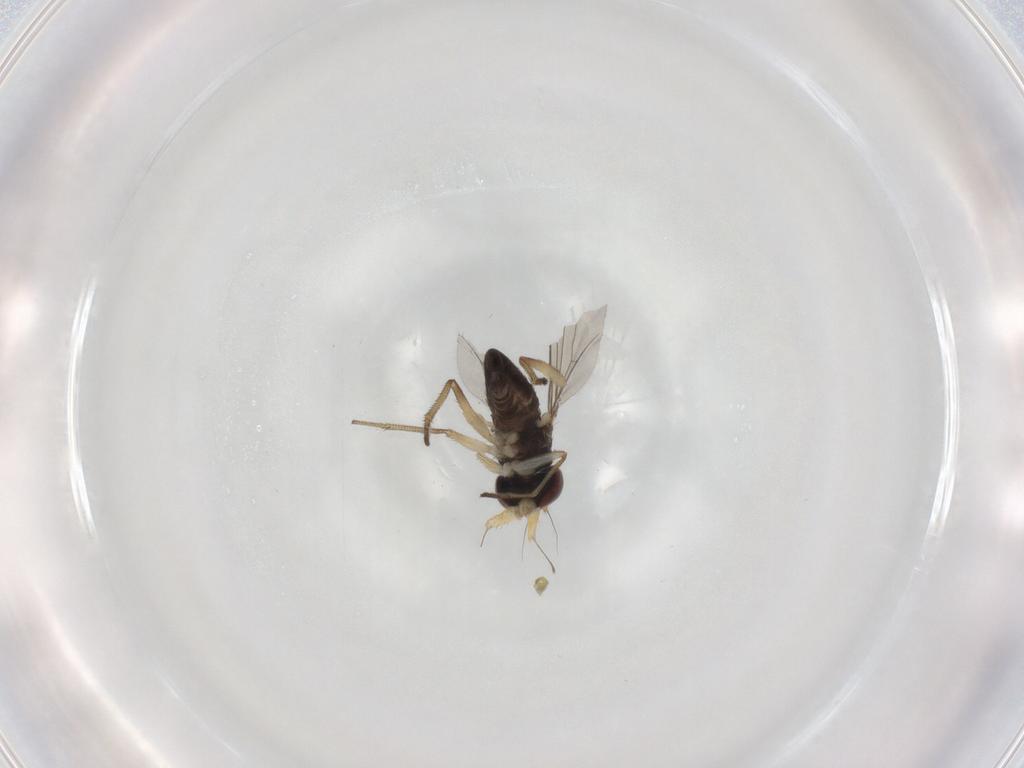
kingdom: Animalia
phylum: Arthropoda
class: Insecta
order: Diptera
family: Dolichopodidae
